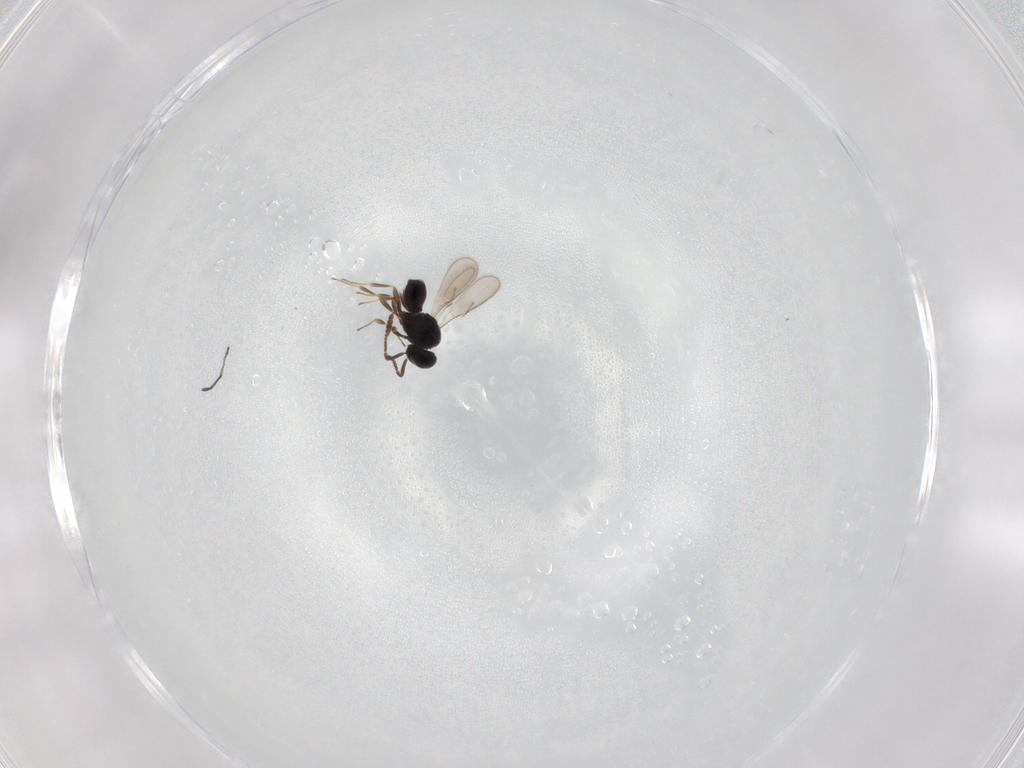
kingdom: Animalia
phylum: Arthropoda
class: Insecta
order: Hymenoptera
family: Scelionidae
